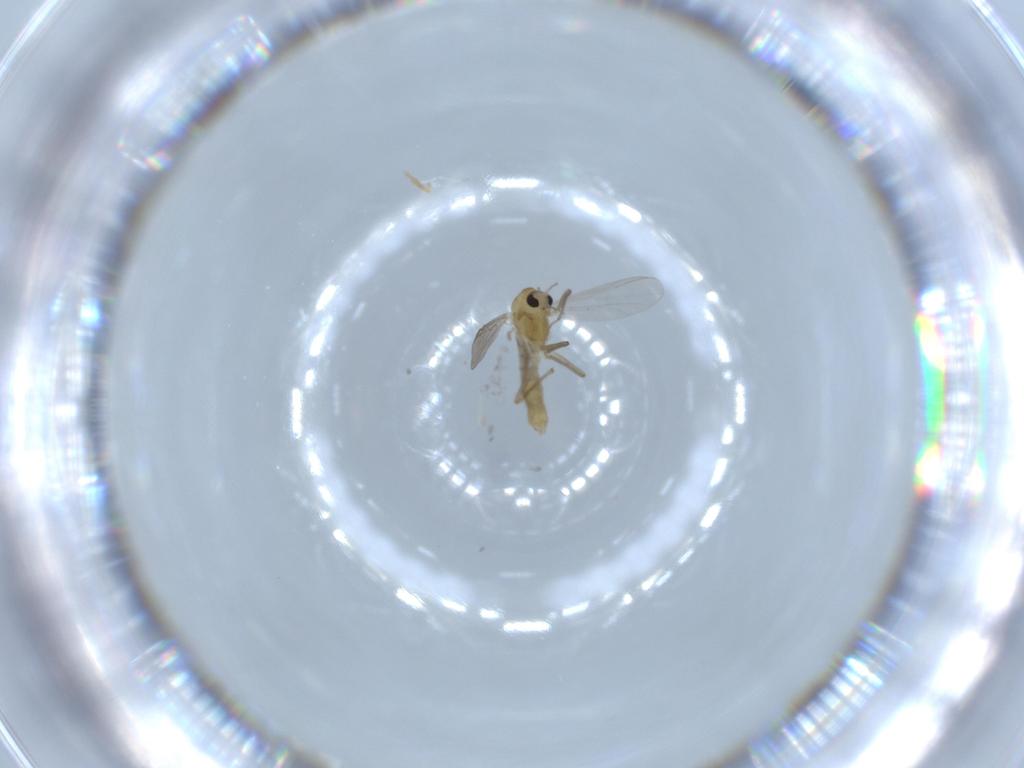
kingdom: Animalia
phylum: Arthropoda
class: Insecta
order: Diptera
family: Chironomidae
